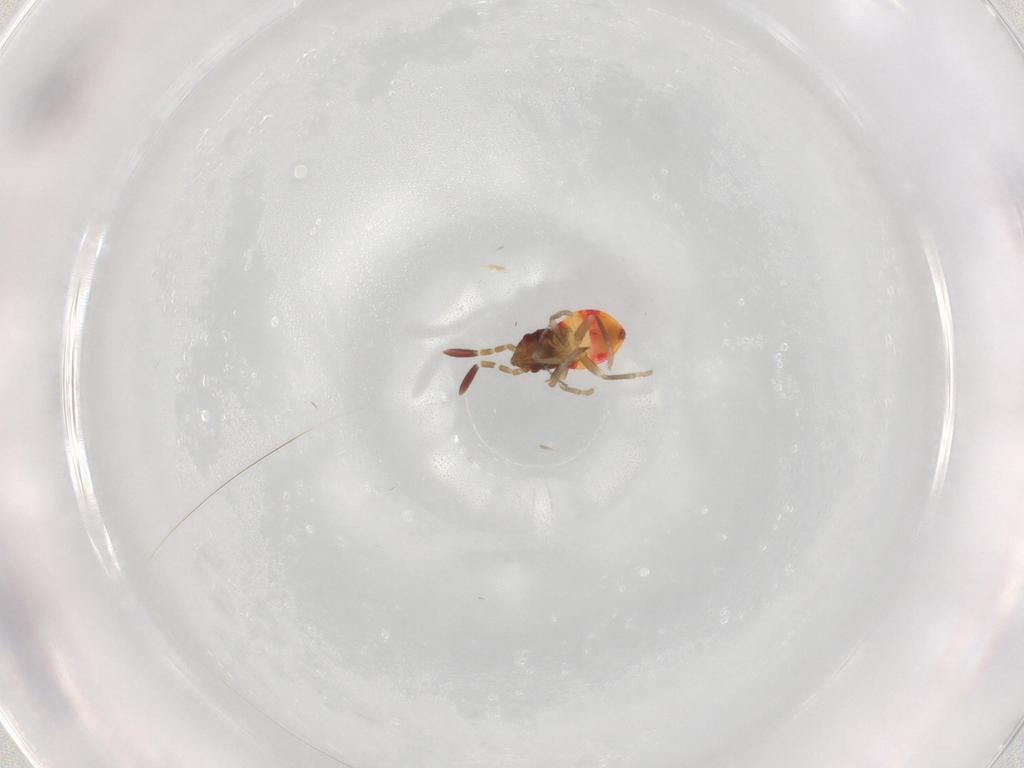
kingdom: Animalia
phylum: Arthropoda
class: Insecta
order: Hemiptera
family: Rhyparochromidae
